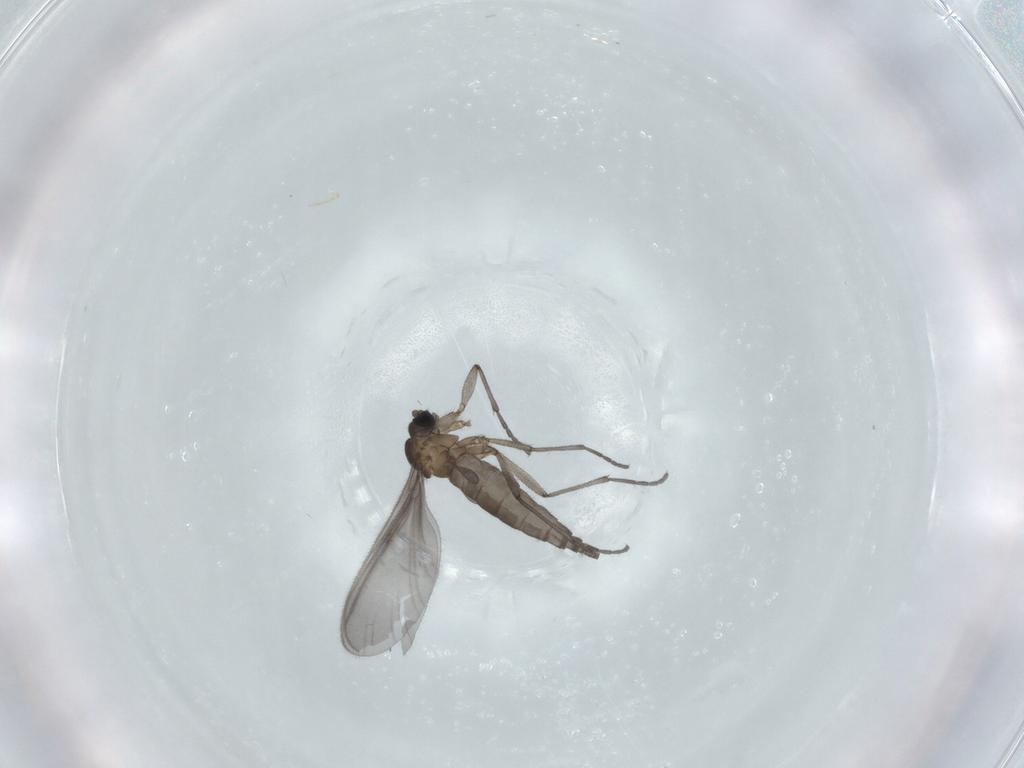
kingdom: Animalia
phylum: Arthropoda
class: Insecta
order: Diptera
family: Sciaridae
